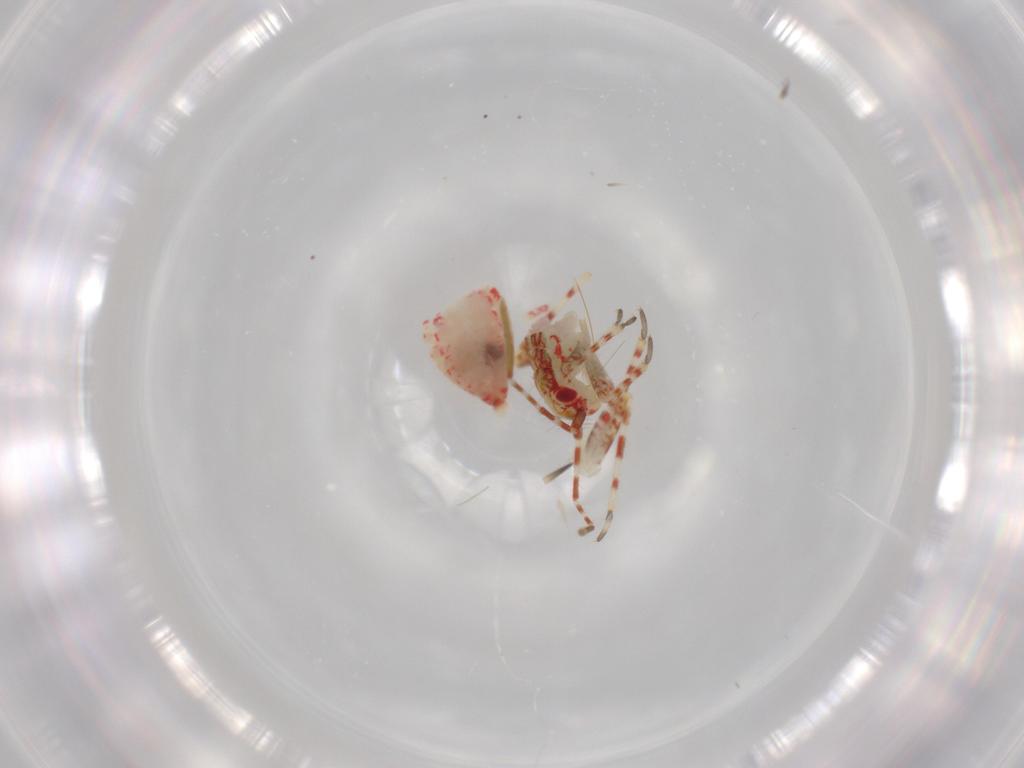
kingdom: Animalia
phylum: Arthropoda
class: Insecta
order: Hemiptera
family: Miridae
